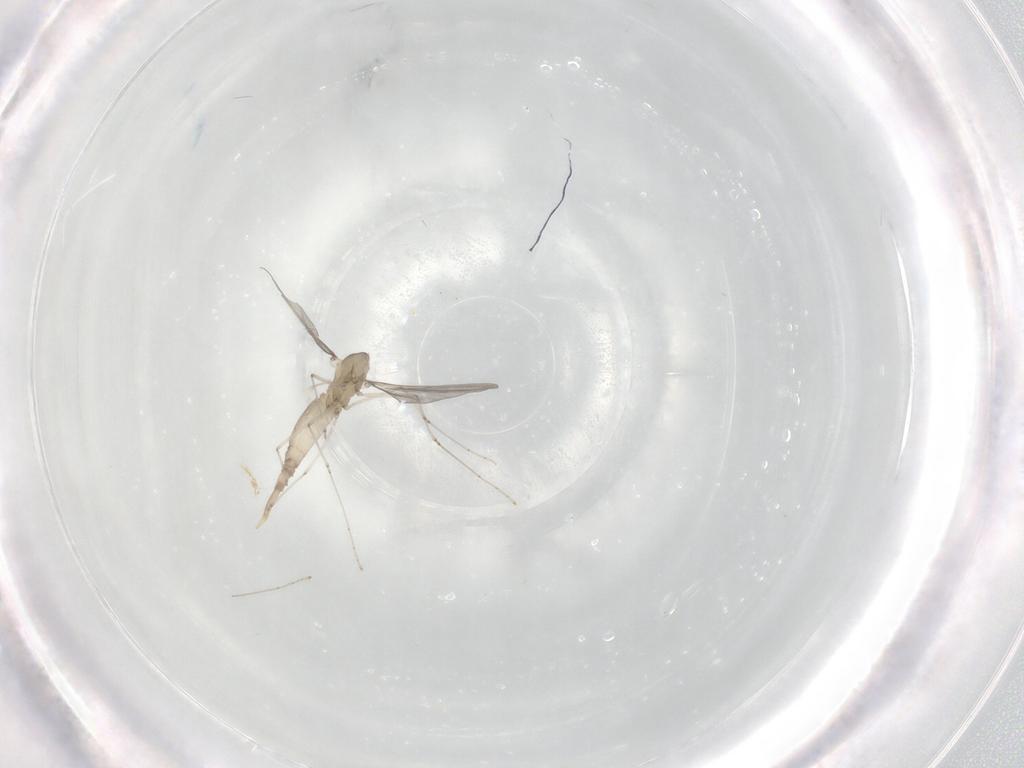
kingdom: Animalia
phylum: Arthropoda
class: Insecta
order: Diptera
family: Cecidomyiidae
